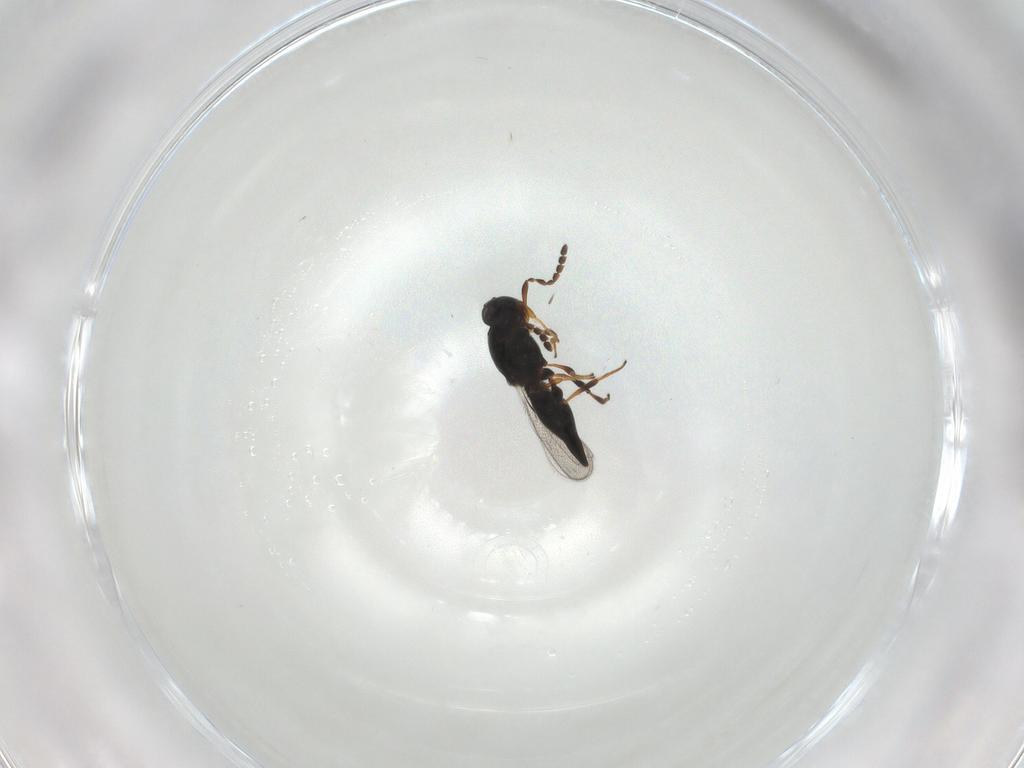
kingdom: Animalia
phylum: Arthropoda
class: Insecta
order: Hymenoptera
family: Platygastridae
